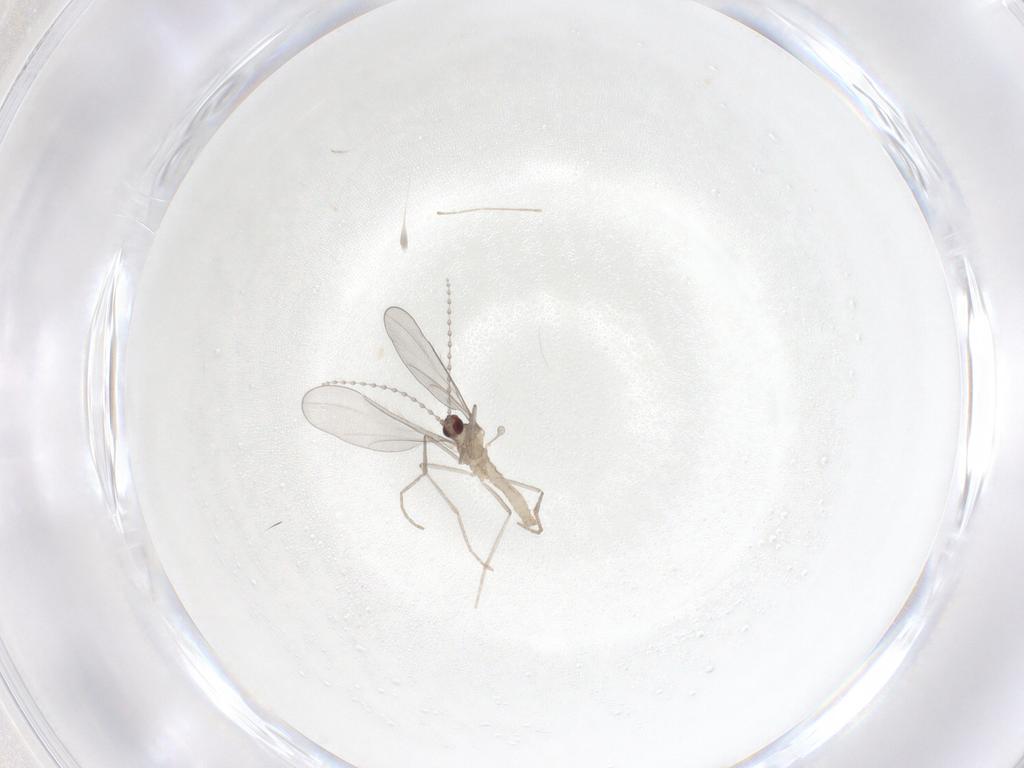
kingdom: Animalia
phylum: Arthropoda
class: Insecta
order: Diptera
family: Cecidomyiidae
